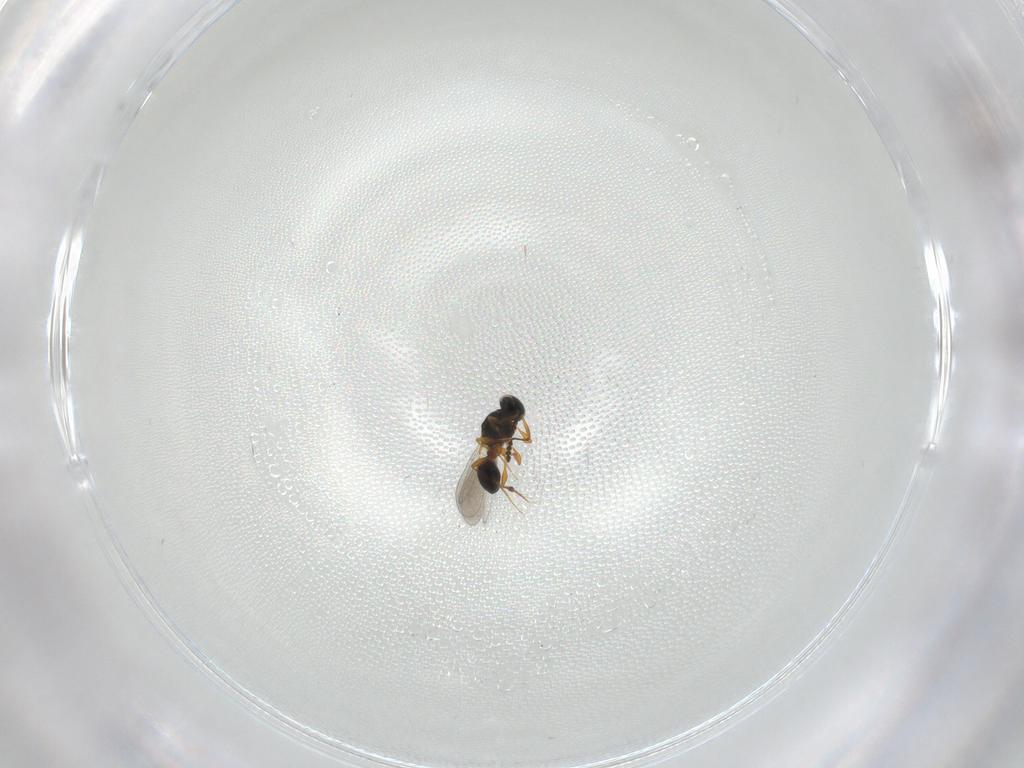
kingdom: Animalia
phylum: Arthropoda
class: Insecta
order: Hymenoptera
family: Platygastridae
